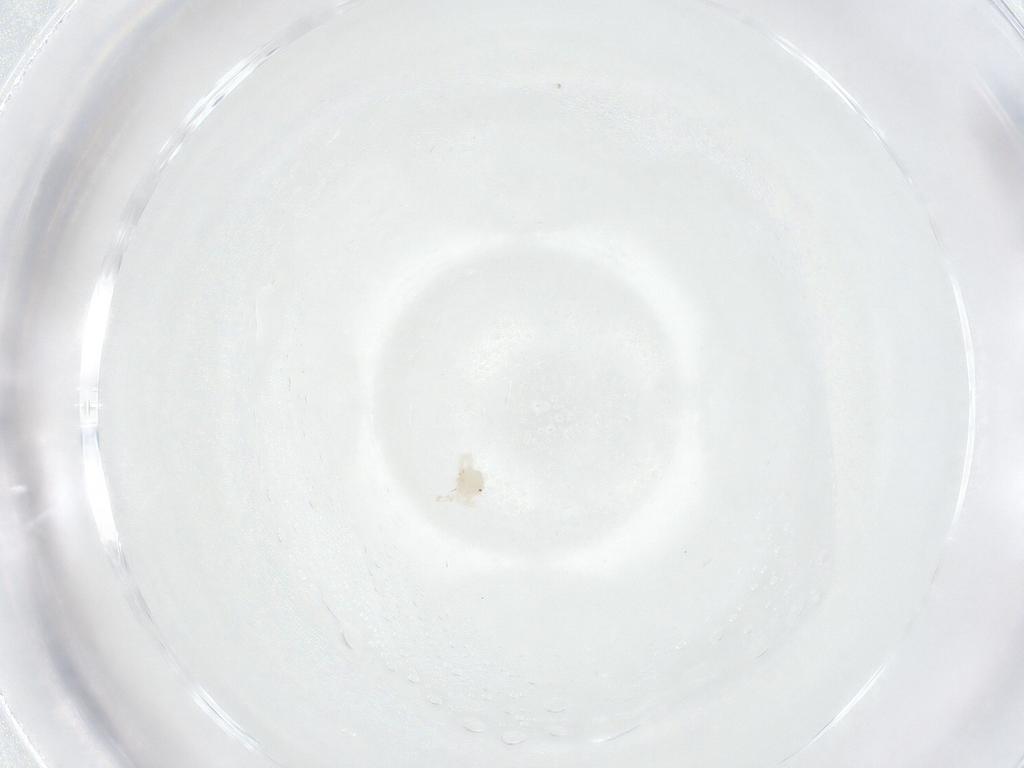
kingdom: Animalia
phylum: Arthropoda
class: Arachnida
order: Trombidiformes
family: Anystidae
